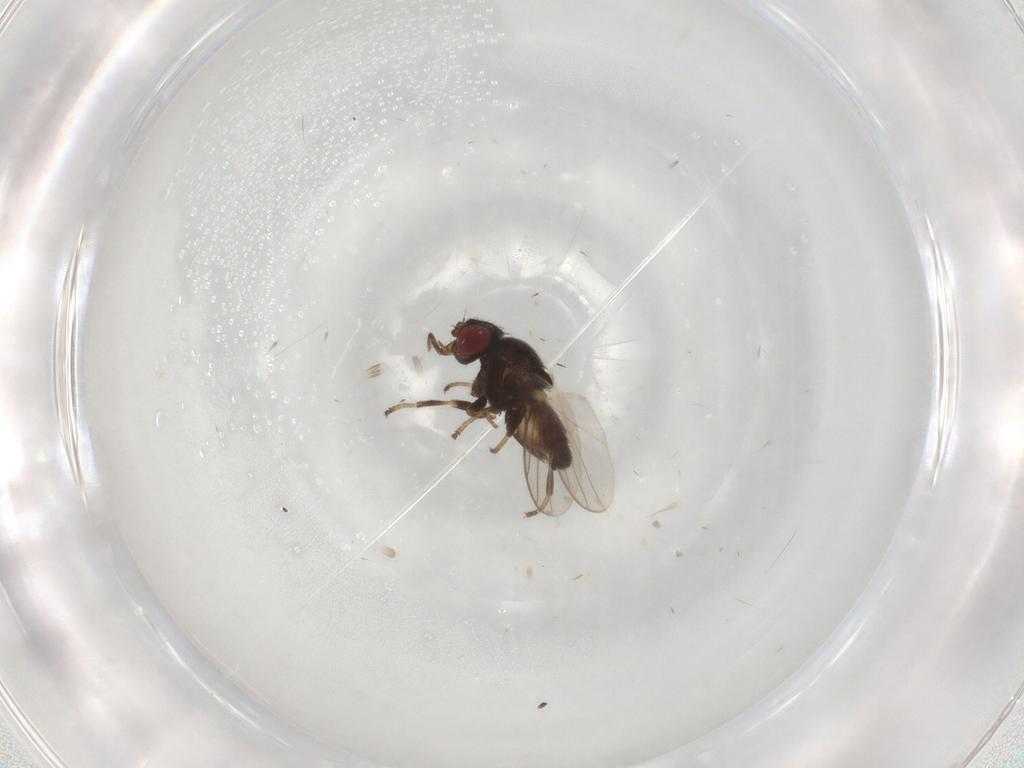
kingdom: Animalia
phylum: Arthropoda
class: Insecta
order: Diptera
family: Chloropidae
